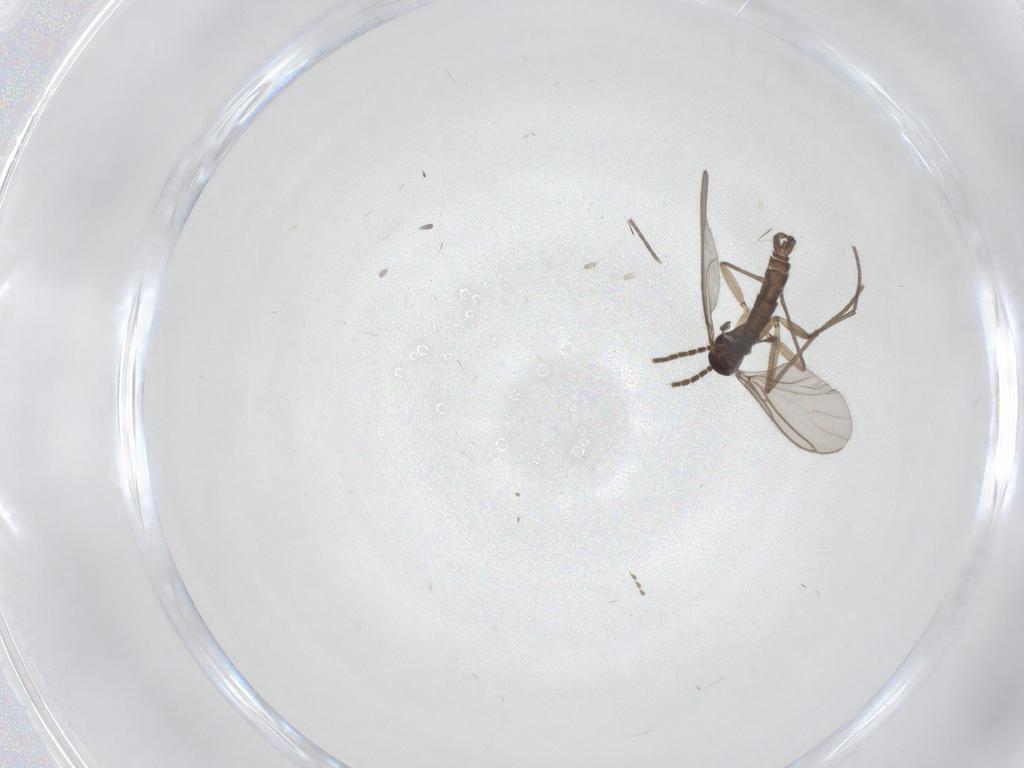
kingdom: Animalia
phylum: Arthropoda
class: Insecta
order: Diptera
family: Sciaridae
